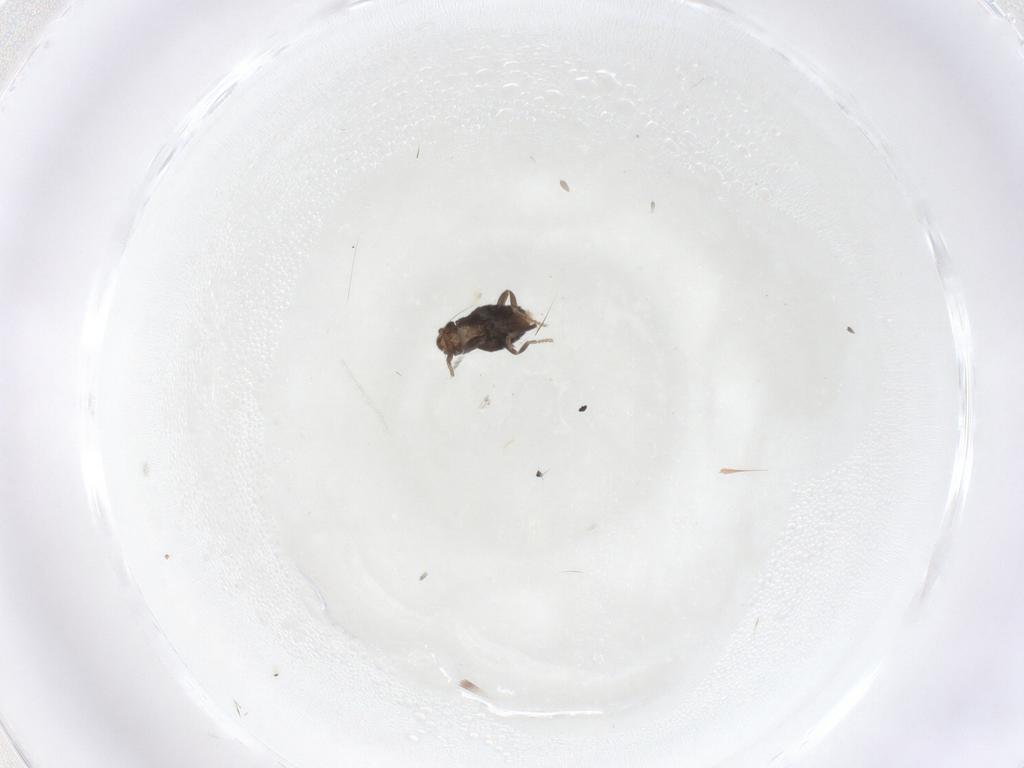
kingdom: Animalia
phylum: Arthropoda
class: Insecta
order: Diptera
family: Phoridae
